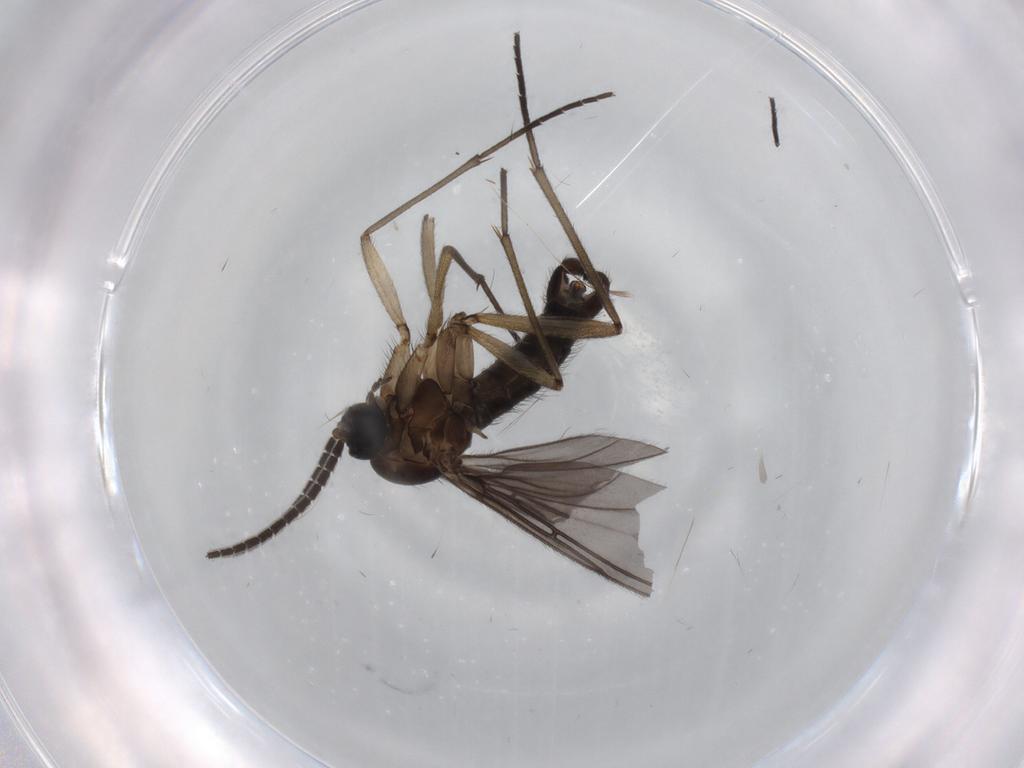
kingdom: Animalia
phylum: Arthropoda
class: Insecta
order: Diptera
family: Sciaridae
